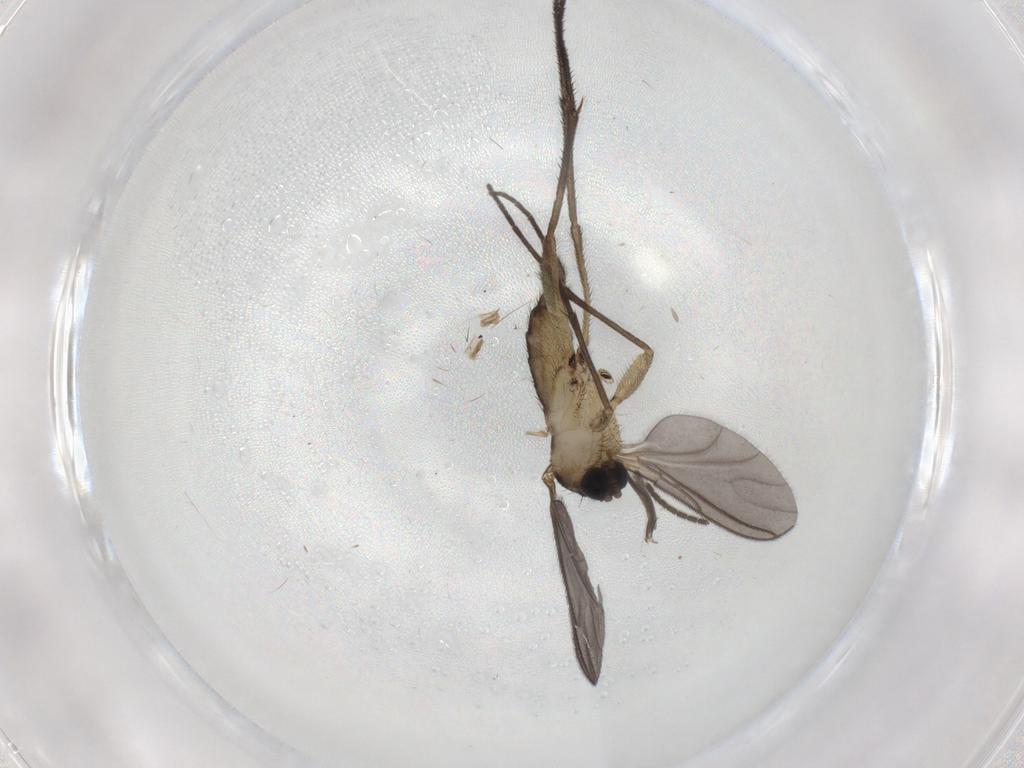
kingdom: Animalia
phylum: Arthropoda
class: Insecta
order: Diptera
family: Sciaridae
